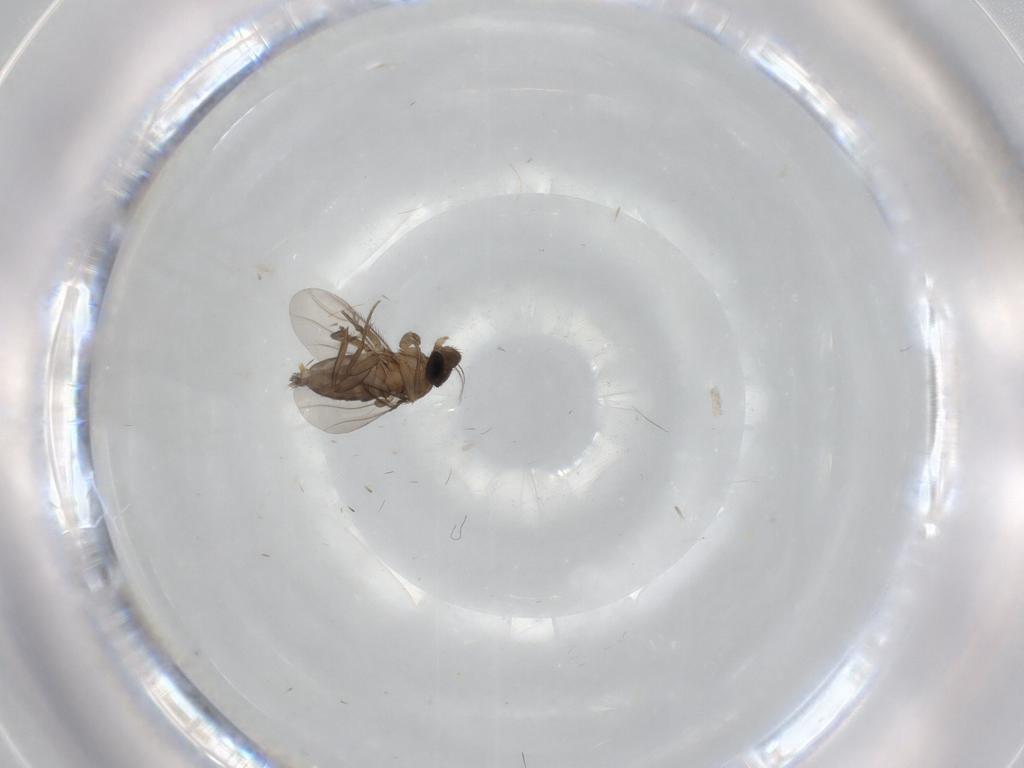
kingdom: Animalia
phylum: Arthropoda
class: Insecta
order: Diptera
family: Phoridae
